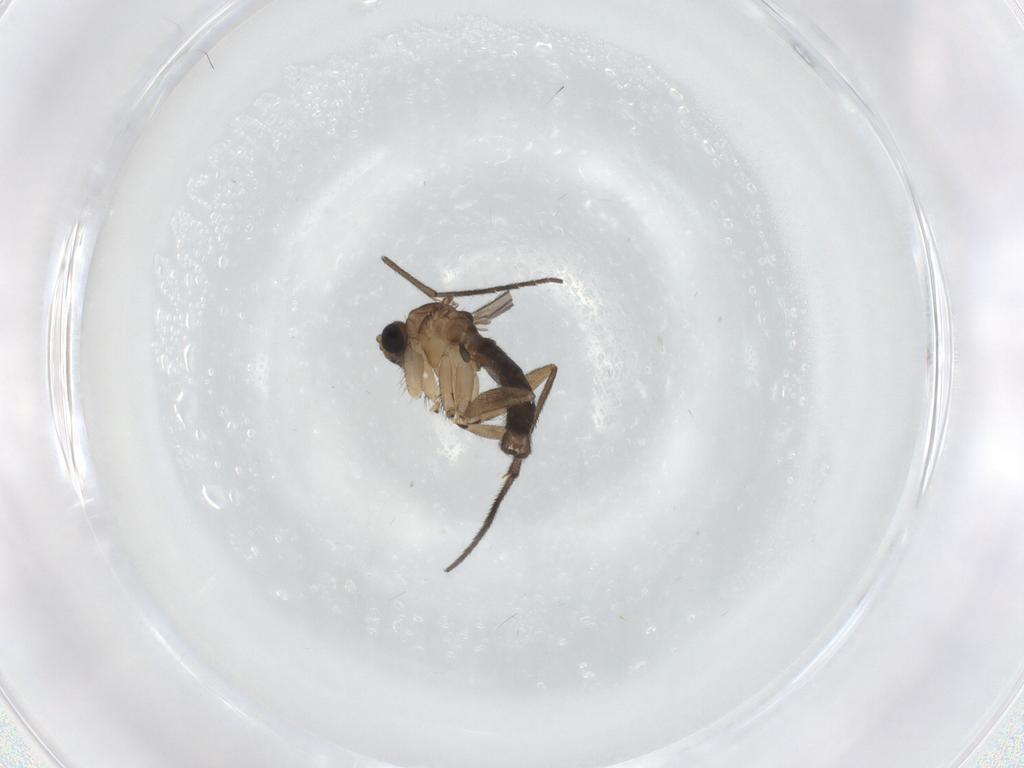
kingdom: Animalia
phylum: Arthropoda
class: Insecta
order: Diptera
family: Sciaridae
